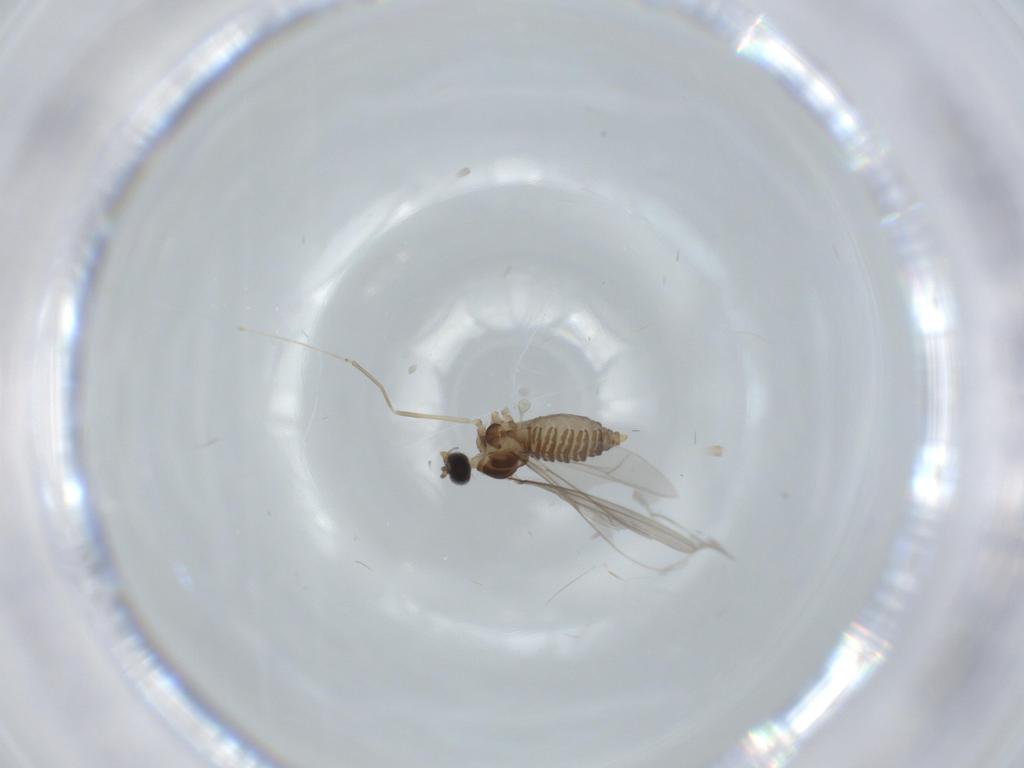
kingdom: Animalia
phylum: Arthropoda
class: Insecta
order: Diptera
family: Cecidomyiidae
